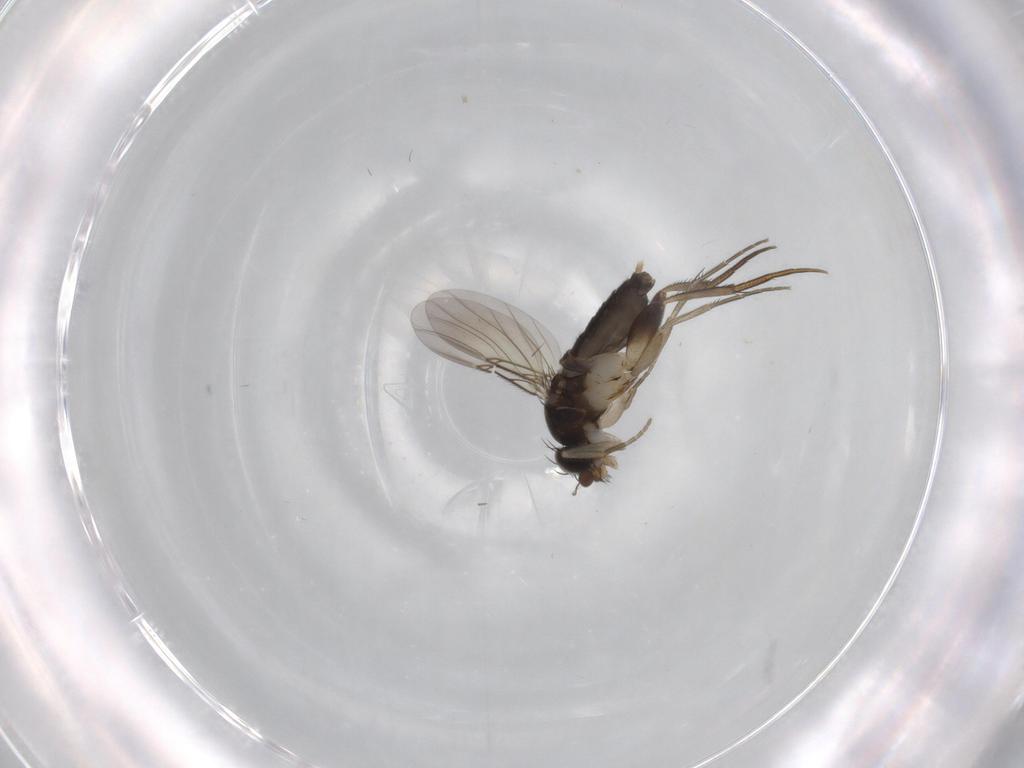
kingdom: Animalia
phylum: Arthropoda
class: Insecta
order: Diptera
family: Phoridae
